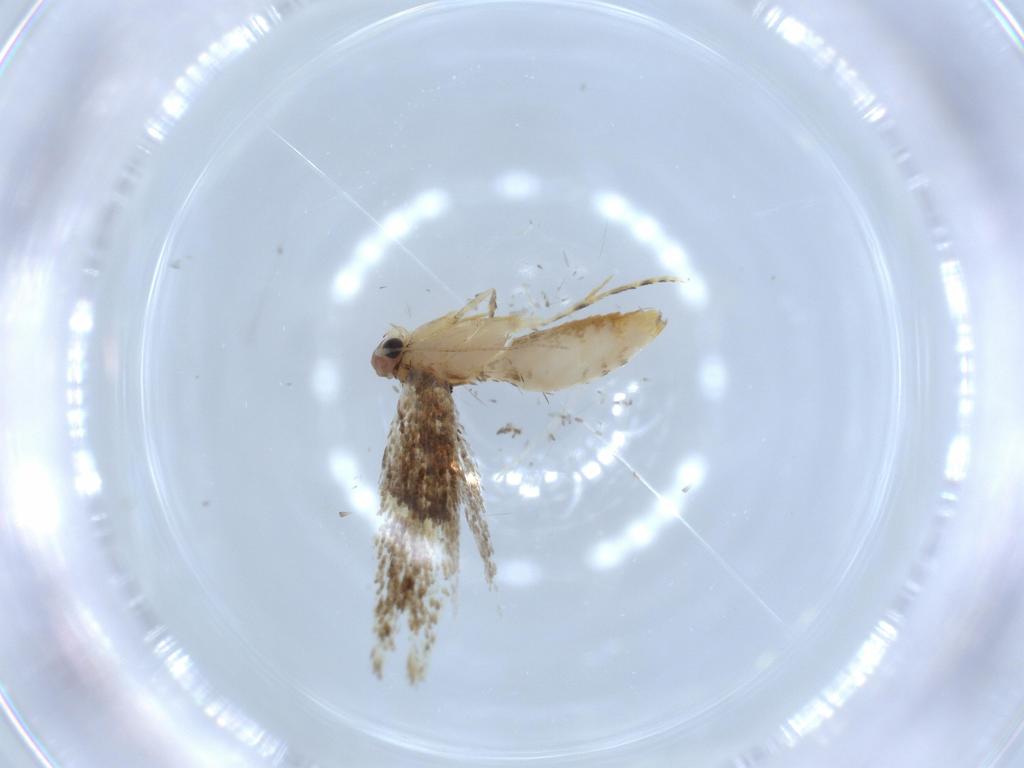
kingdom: Animalia
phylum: Arthropoda
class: Insecta
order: Lepidoptera
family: Tineidae
